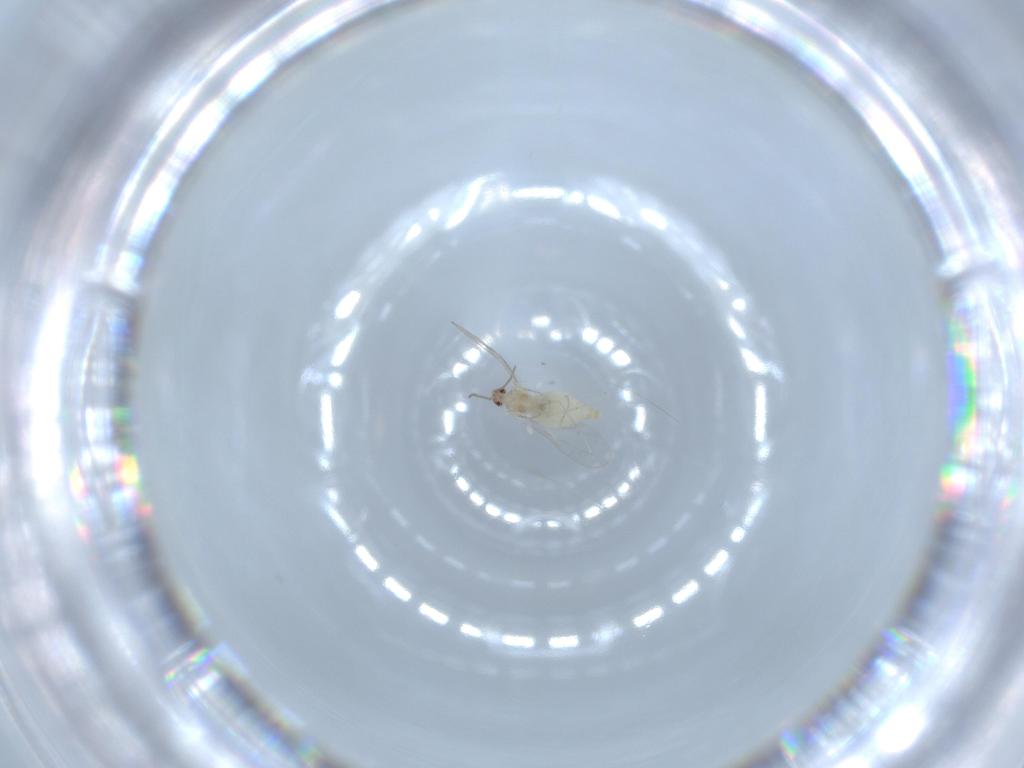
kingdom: Animalia
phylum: Arthropoda
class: Insecta
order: Diptera
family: Cecidomyiidae
